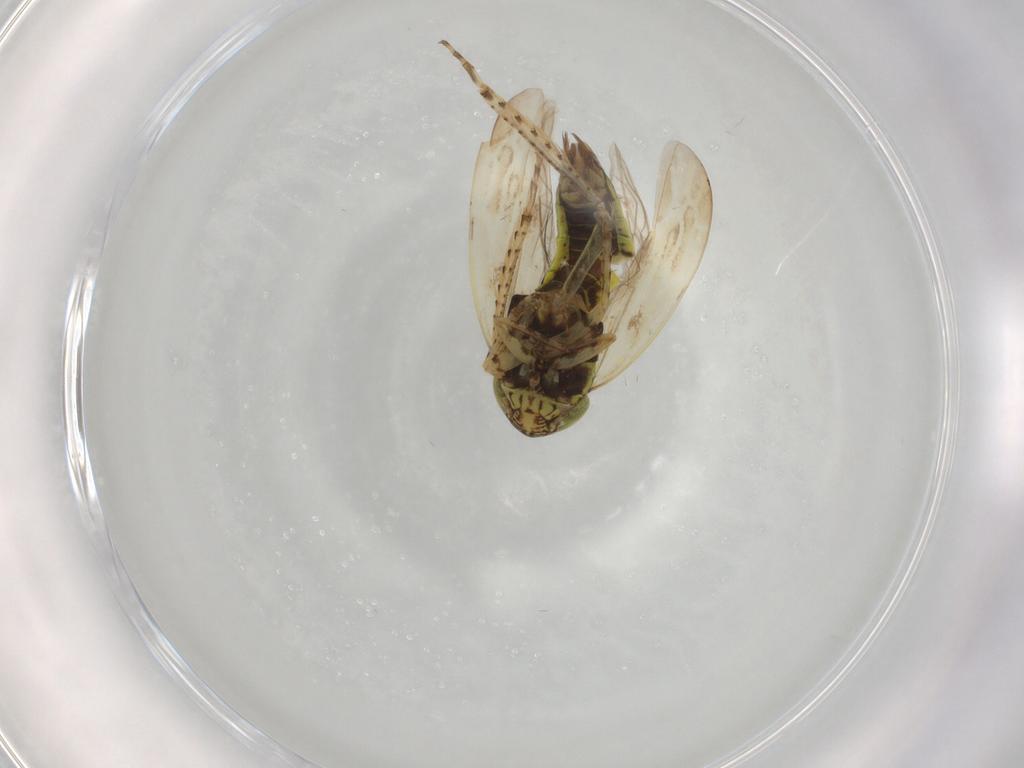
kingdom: Animalia
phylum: Arthropoda
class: Insecta
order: Hemiptera
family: Cicadellidae
